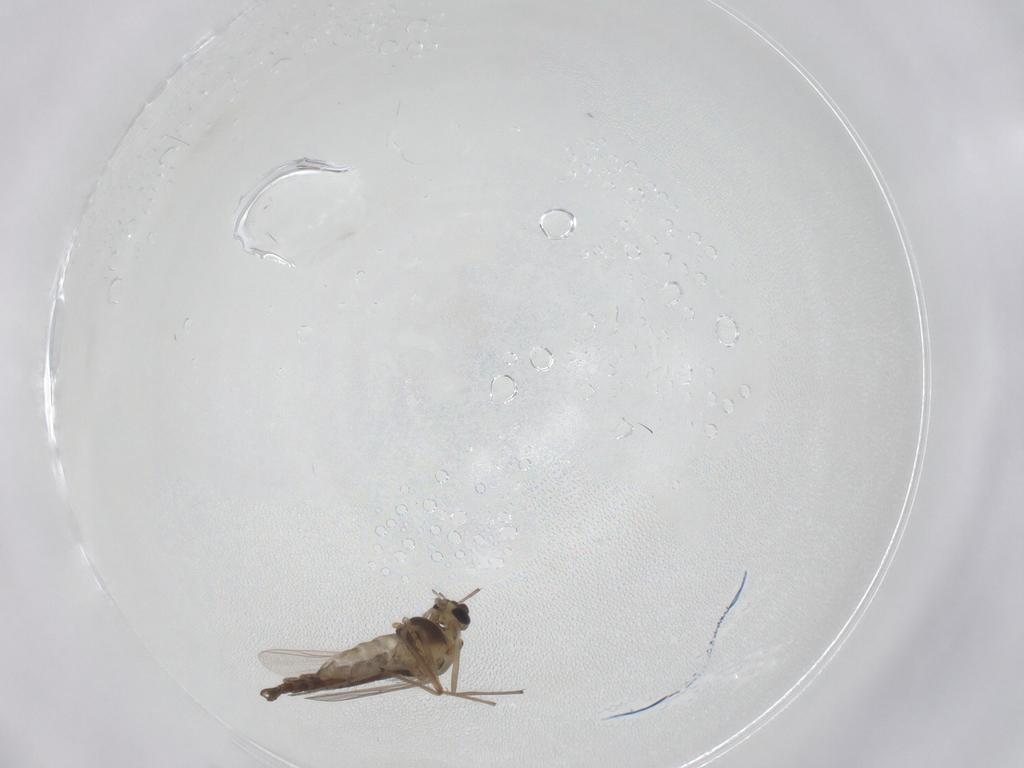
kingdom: Animalia
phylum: Arthropoda
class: Insecta
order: Diptera
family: Chironomidae
